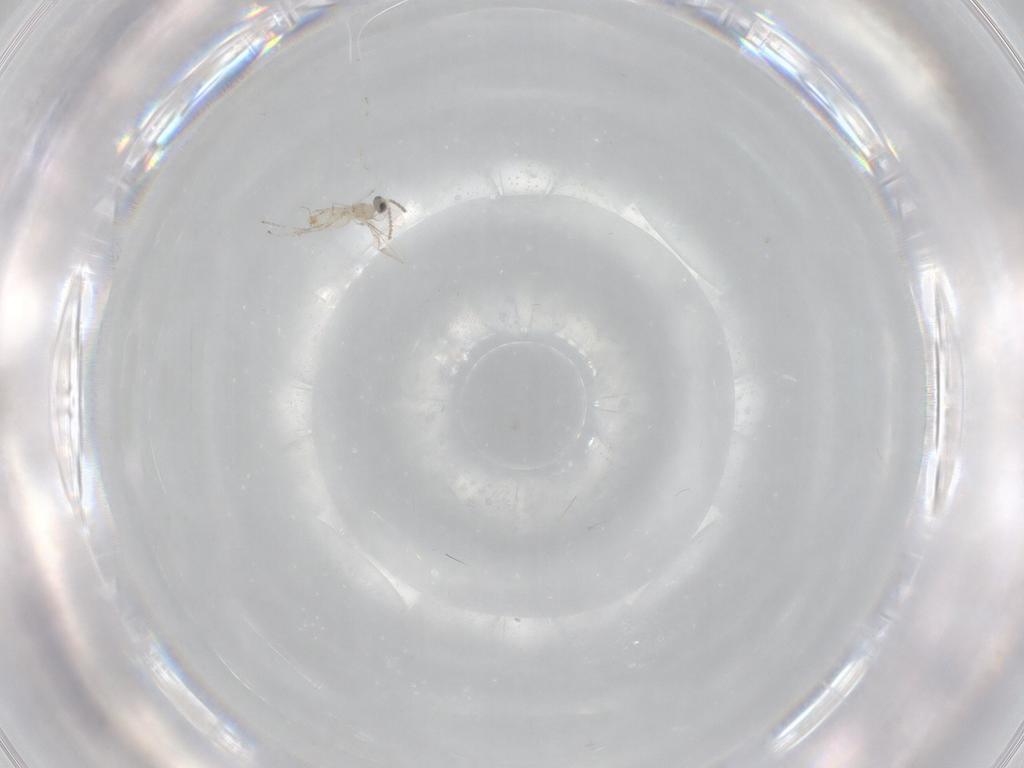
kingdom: Animalia
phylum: Arthropoda
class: Insecta
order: Diptera
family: Cecidomyiidae
